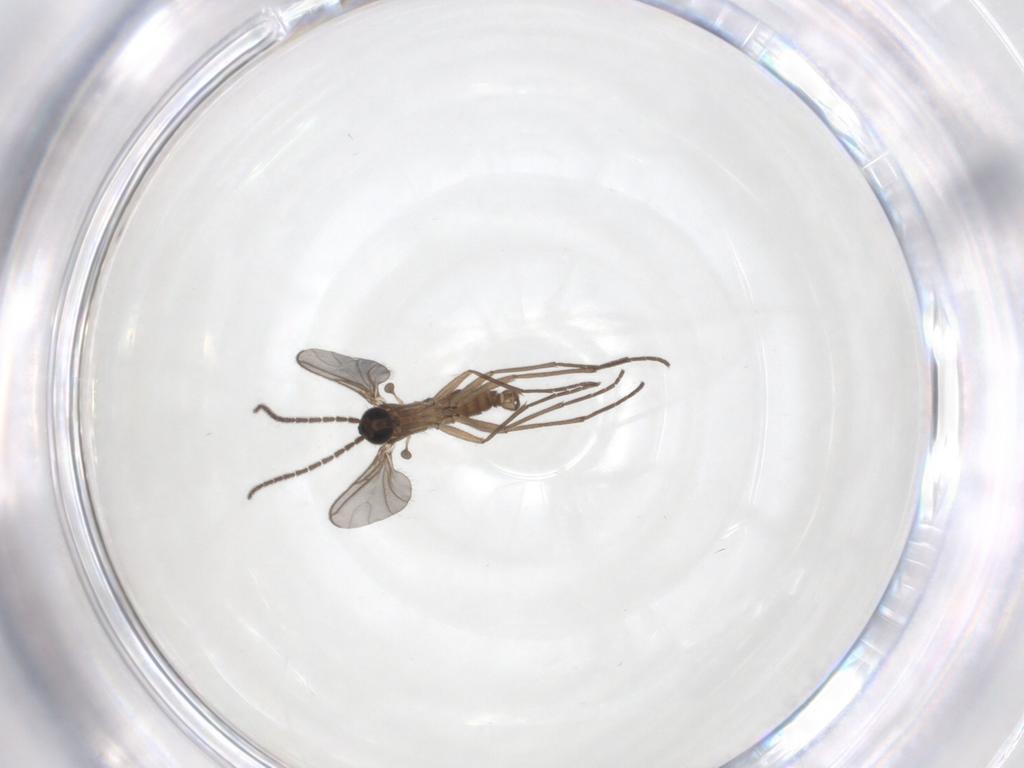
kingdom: Animalia
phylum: Arthropoda
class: Insecta
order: Diptera
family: Sciaridae
